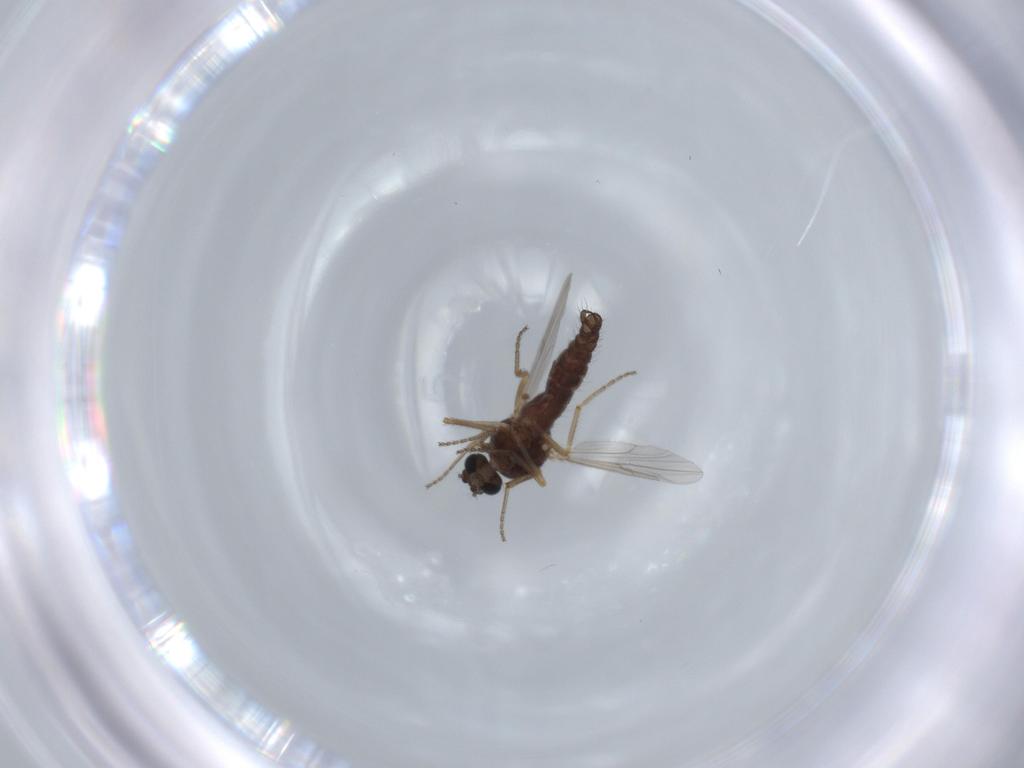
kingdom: Animalia
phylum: Arthropoda
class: Insecta
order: Diptera
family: Ceratopogonidae
